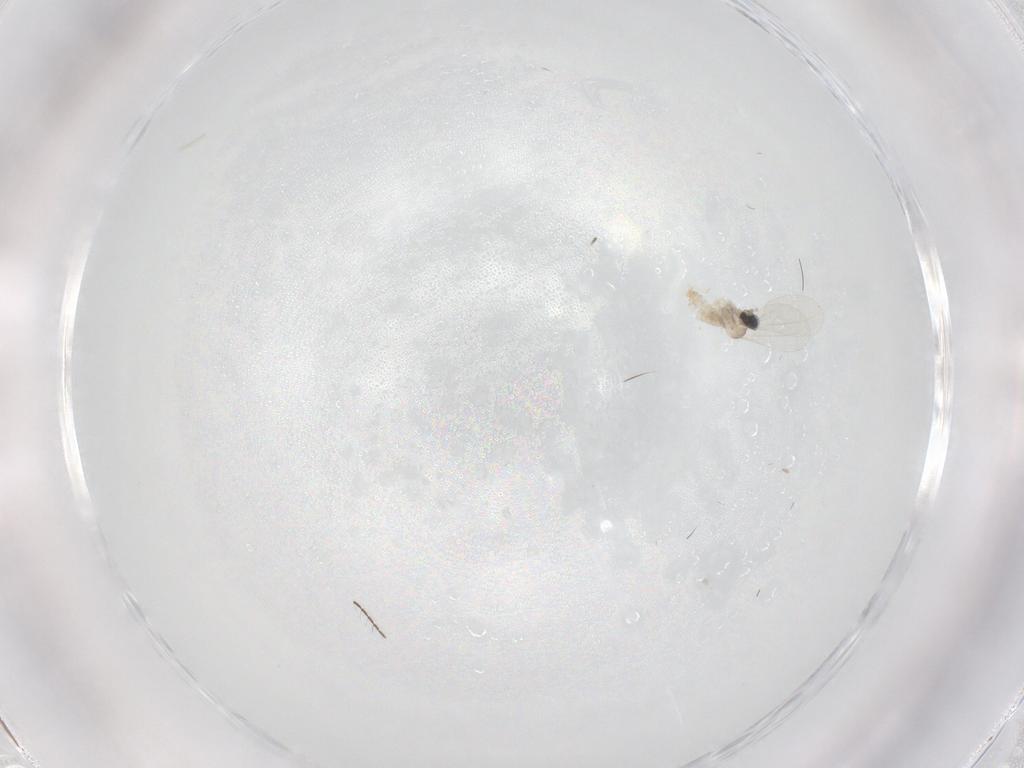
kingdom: Animalia
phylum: Arthropoda
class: Insecta
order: Diptera
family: Cecidomyiidae
